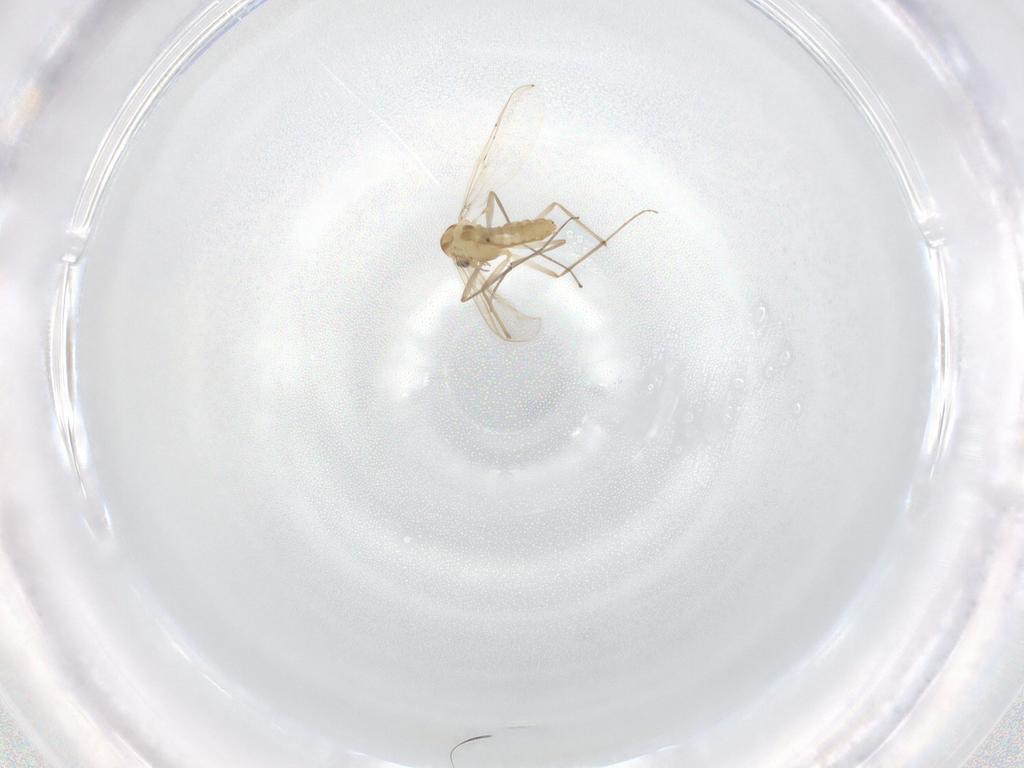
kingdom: Animalia
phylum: Arthropoda
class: Insecta
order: Diptera
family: Chironomidae
